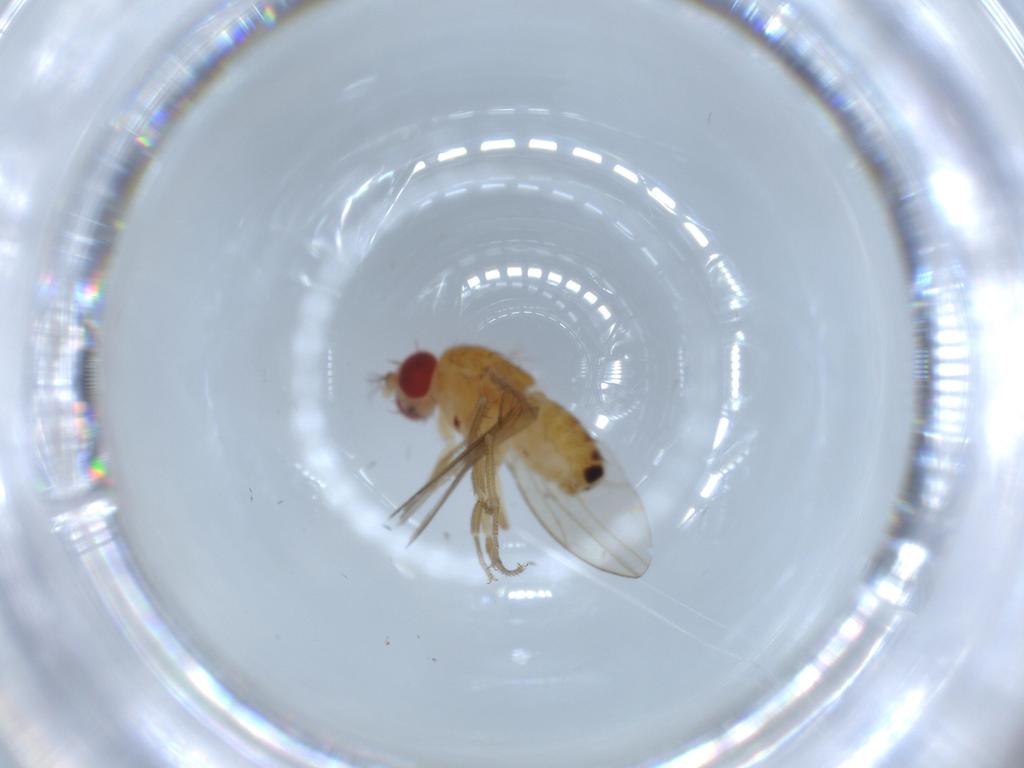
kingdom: Animalia
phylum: Arthropoda
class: Insecta
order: Diptera
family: Drosophilidae
